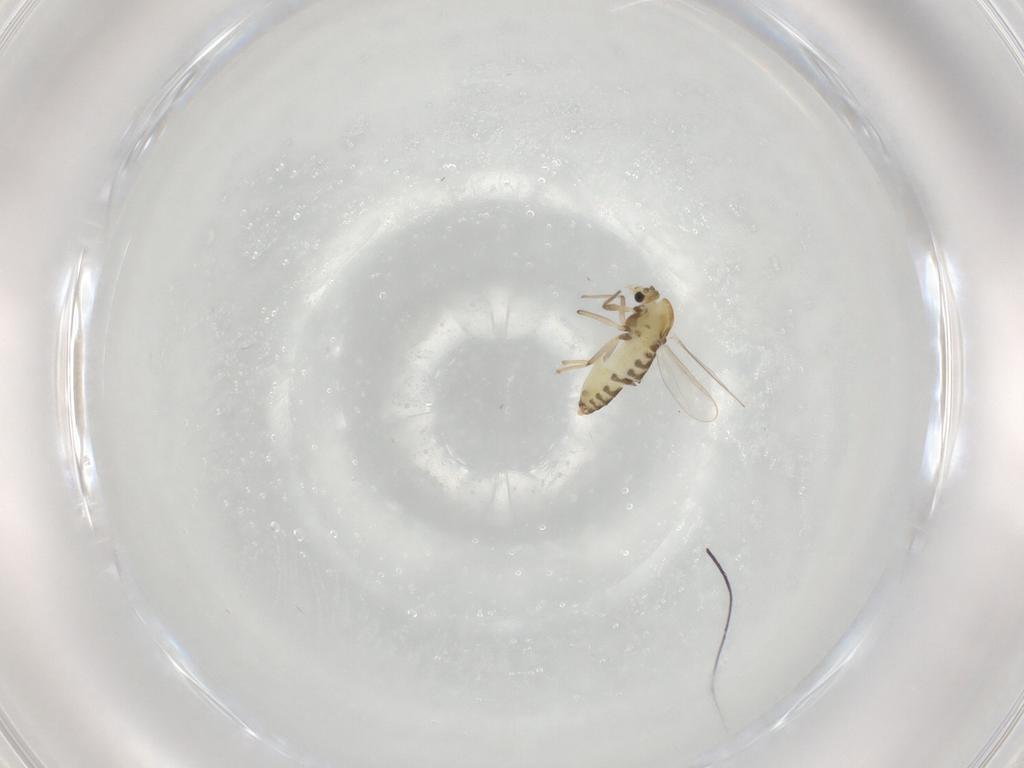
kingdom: Animalia
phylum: Arthropoda
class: Insecta
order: Diptera
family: Chironomidae
